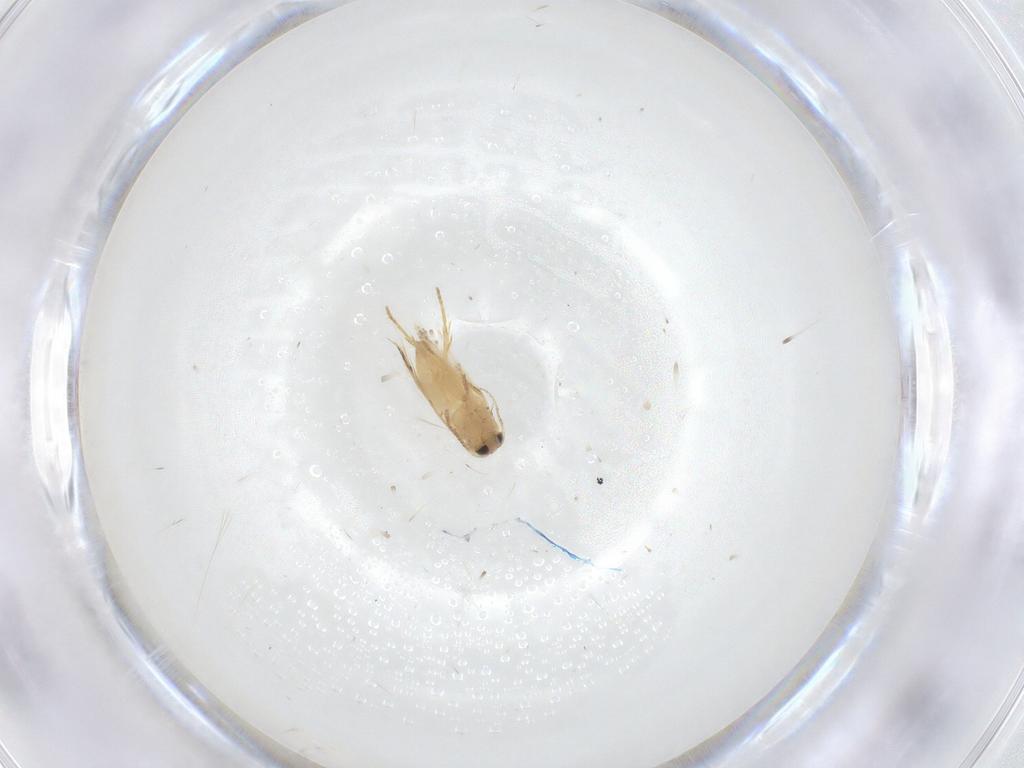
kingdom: Animalia
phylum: Arthropoda
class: Insecta
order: Lepidoptera
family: Crambidae
